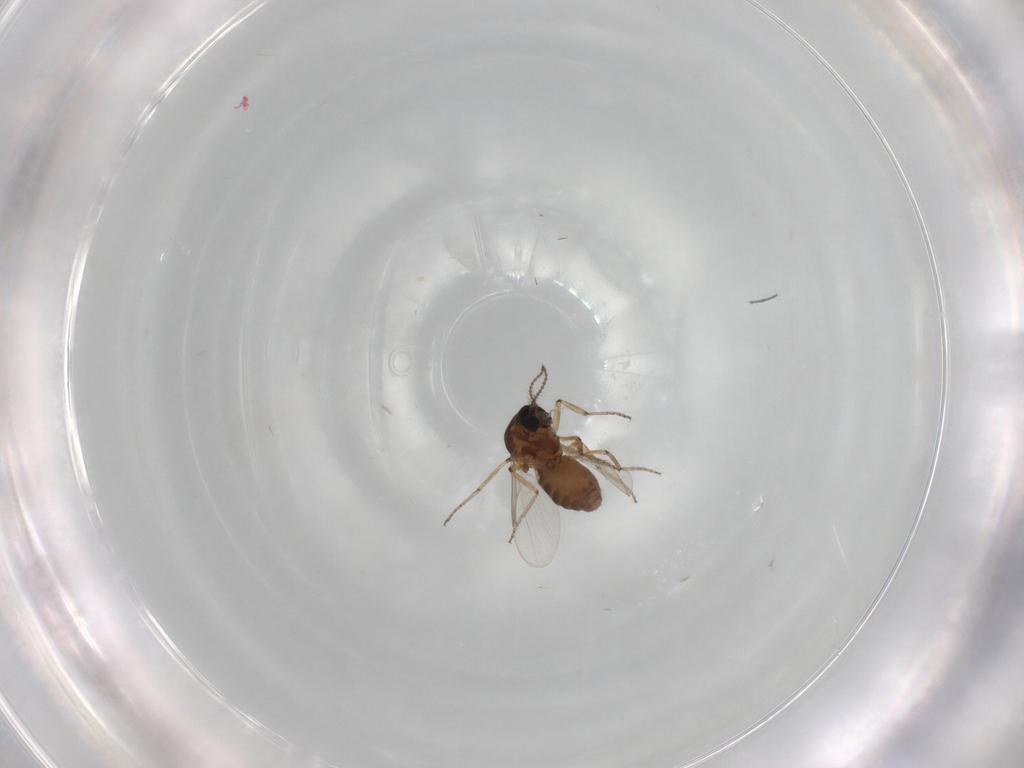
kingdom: Animalia
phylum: Arthropoda
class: Insecta
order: Diptera
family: Ceratopogonidae
